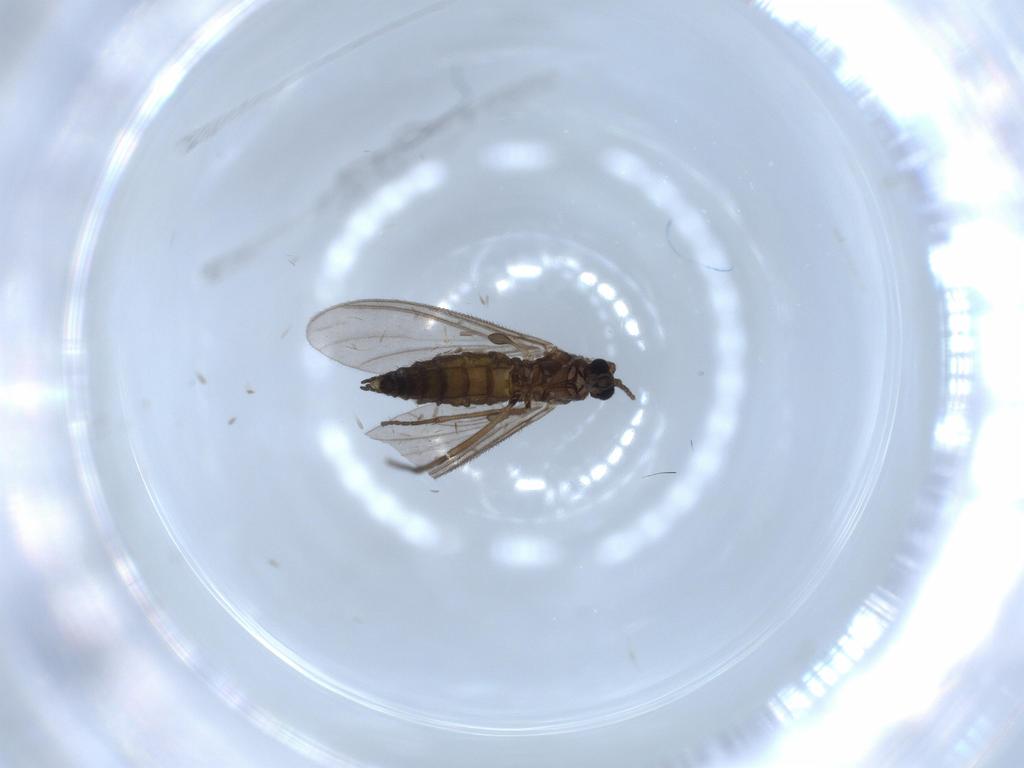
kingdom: Animalia
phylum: Arthropoda
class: Insecta
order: Diptera
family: Sciaridae
